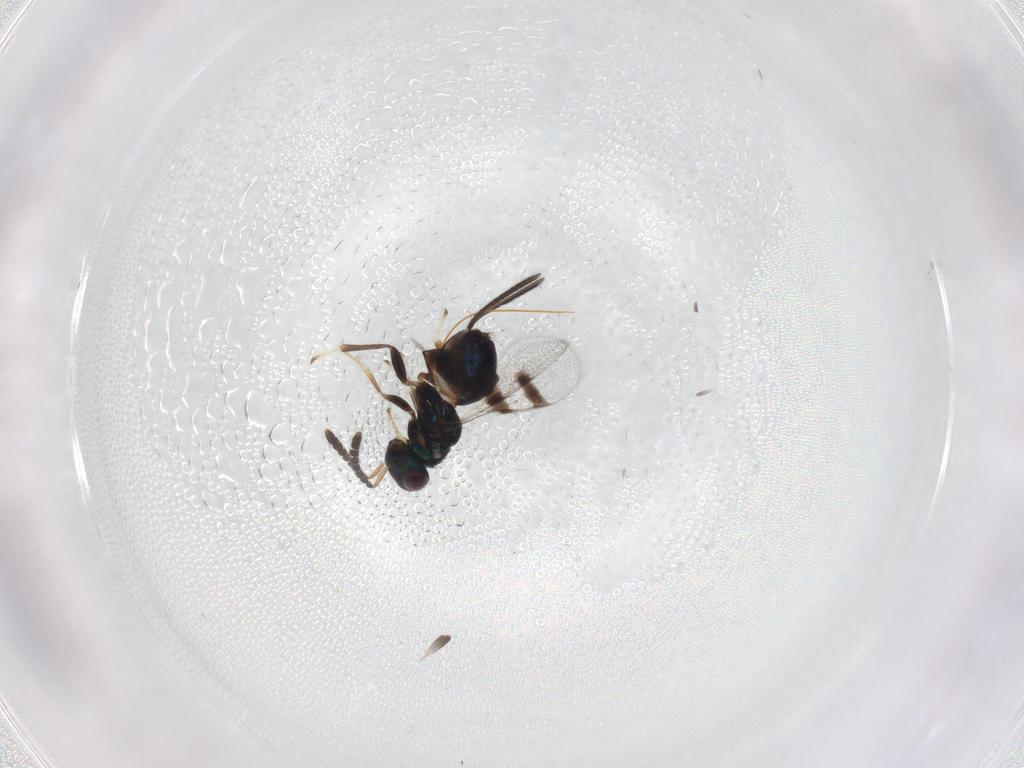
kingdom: Animalia
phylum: Arthropoda
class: Insecta
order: Hymenoptera
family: Pirenidae
